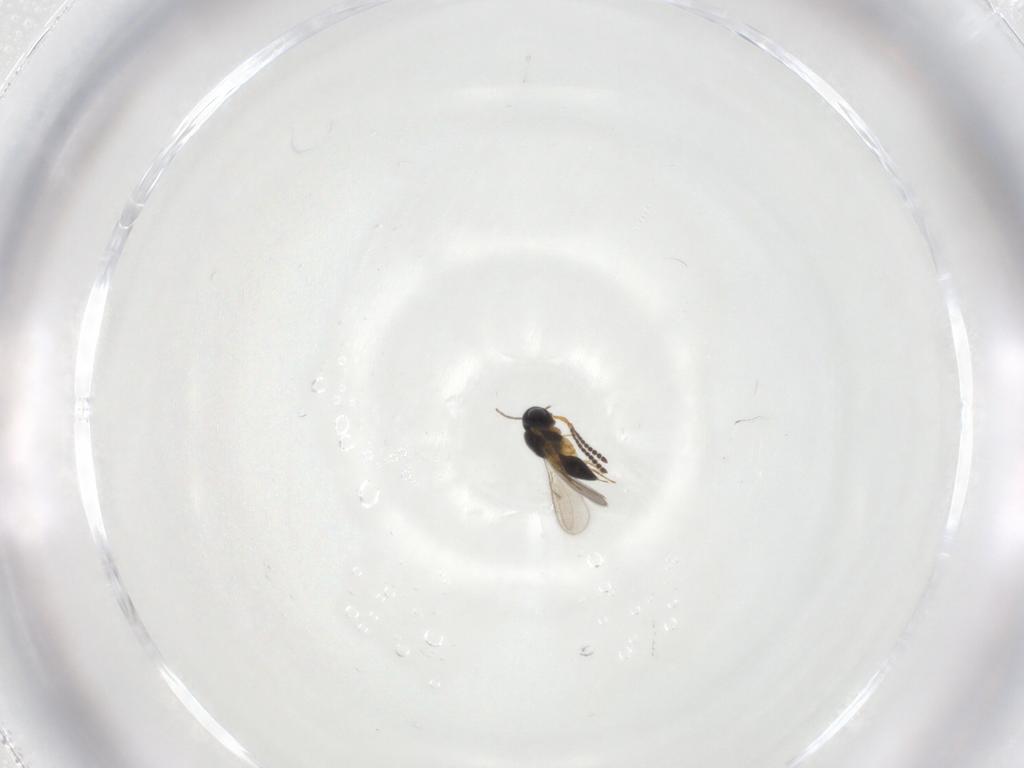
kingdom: Animalia
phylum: Arthropoda
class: Insecta
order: Hymenoptera
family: Scelionidae
